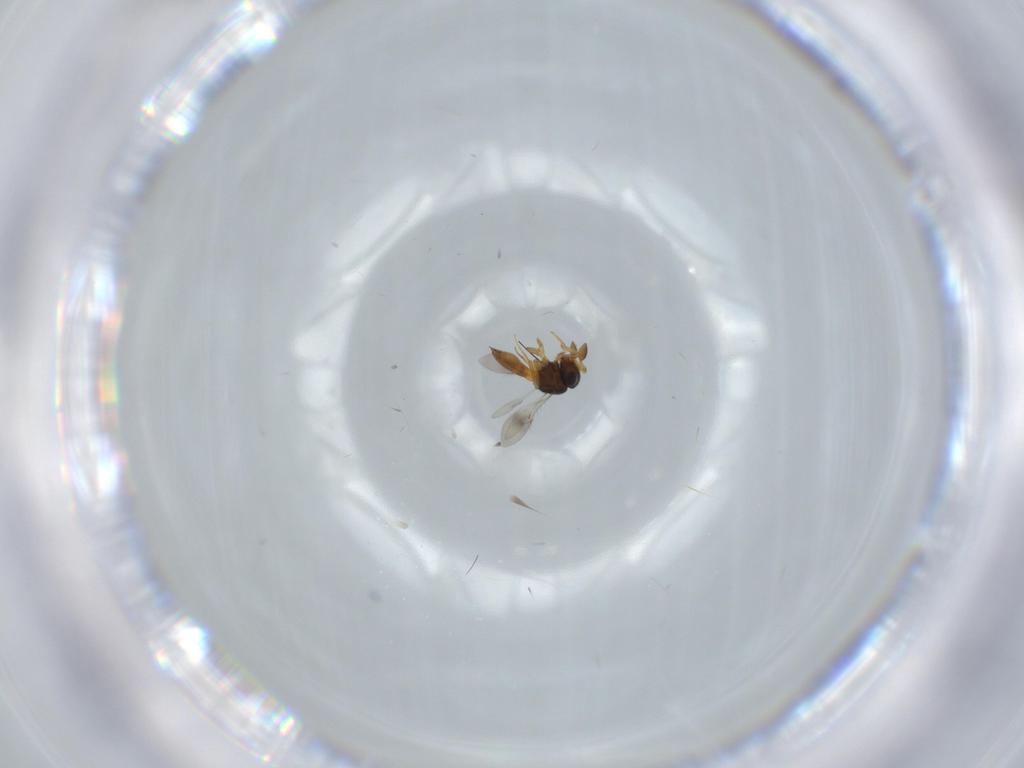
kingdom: Animalia
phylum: Arthropoda
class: Insecta
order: Hymenoptera
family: Scelionidae
